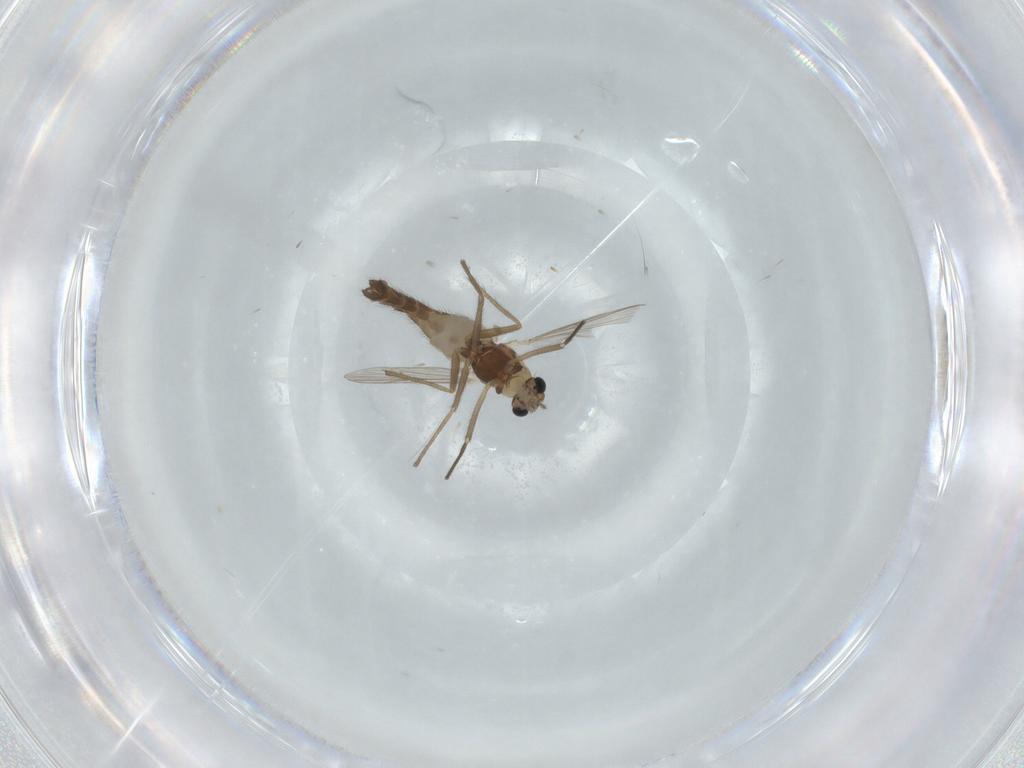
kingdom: Animalia
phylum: Arthropoda
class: Insecta
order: Diptera
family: Chironomidae
